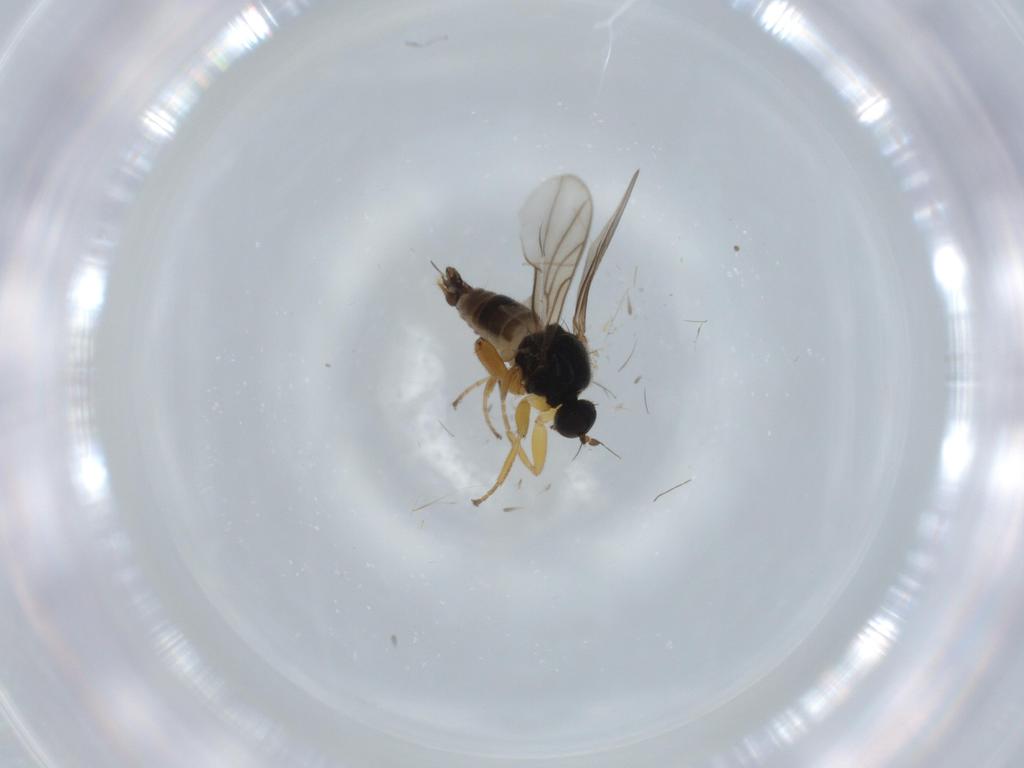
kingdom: Animalia
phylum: Arthropoda
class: Insecta
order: Diptera
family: Hybotidae
